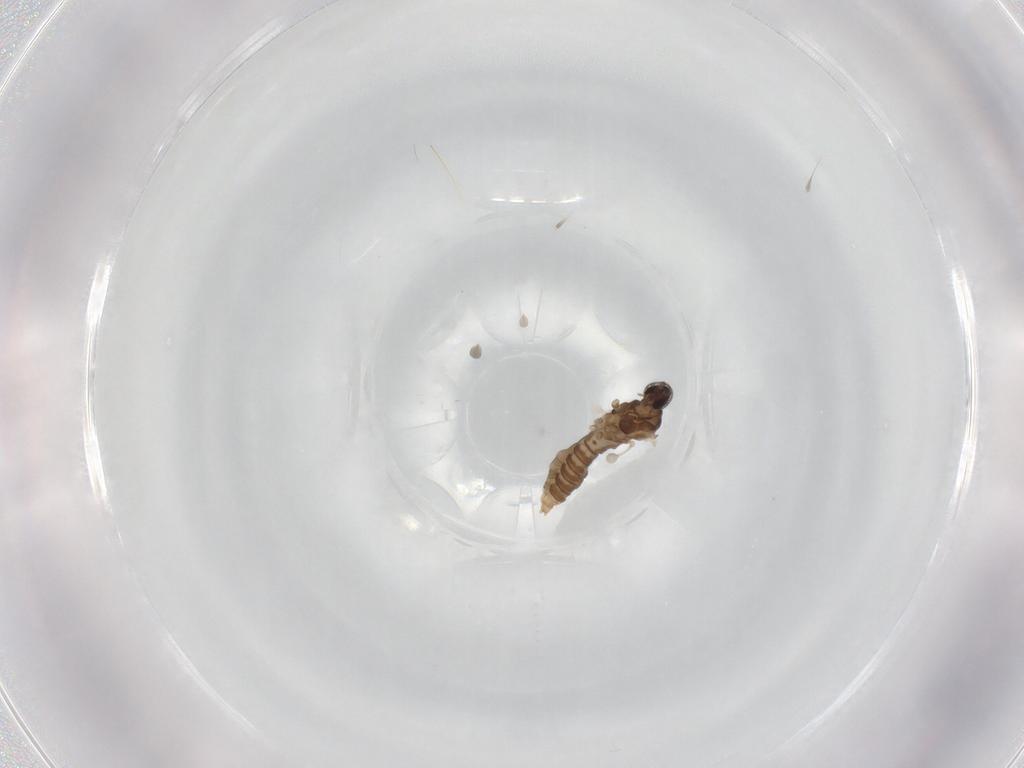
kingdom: Animalia
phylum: Arthropoda
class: Insecta
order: Diptera
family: Cecidomyiidae
